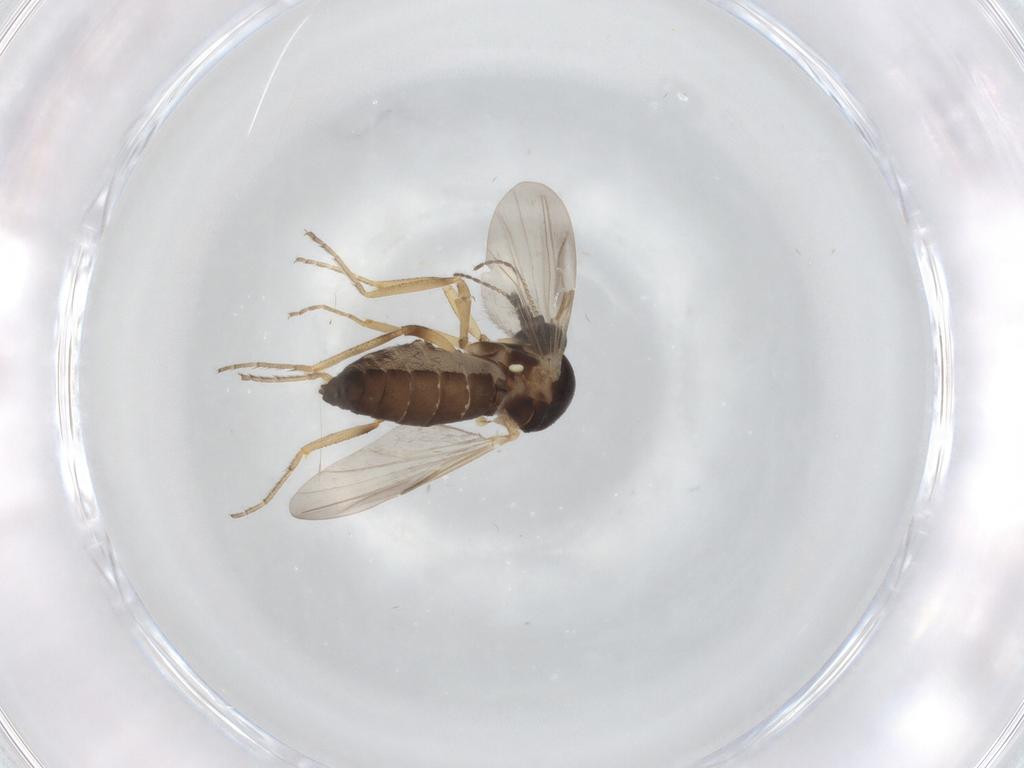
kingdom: Animalia
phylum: Arthropoda
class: Insecta
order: Diptera
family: Ceratopogonidae
